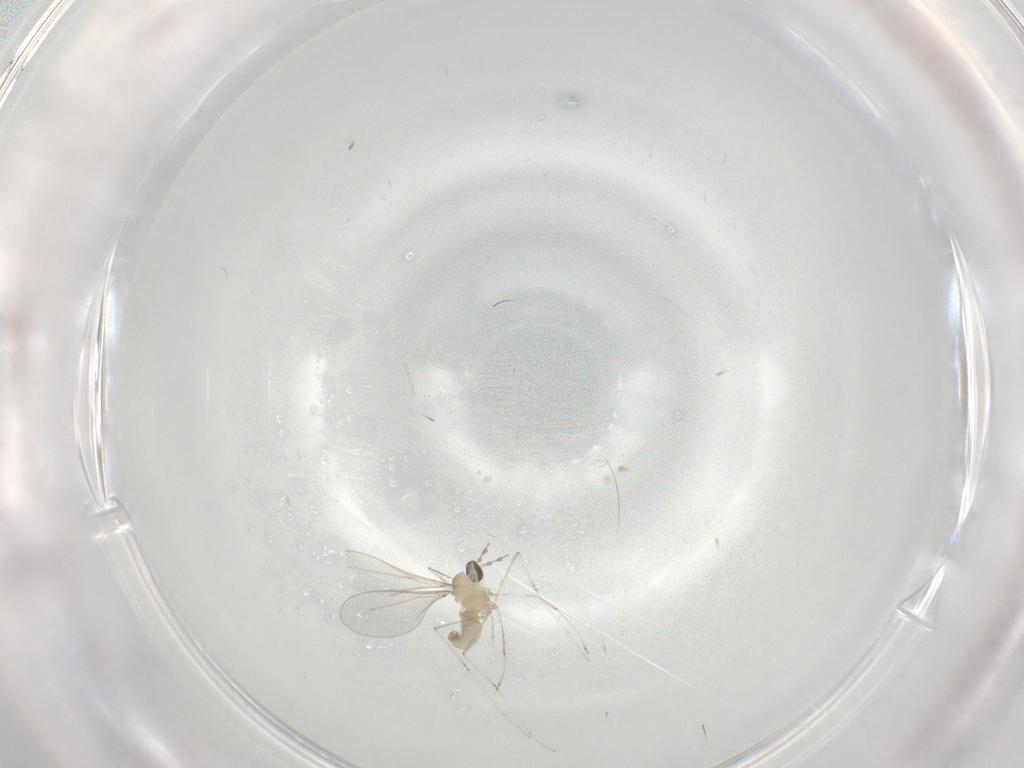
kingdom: Animalia
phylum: Arthropoda
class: Insecta
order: Diptera
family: Cecidomyiidae
